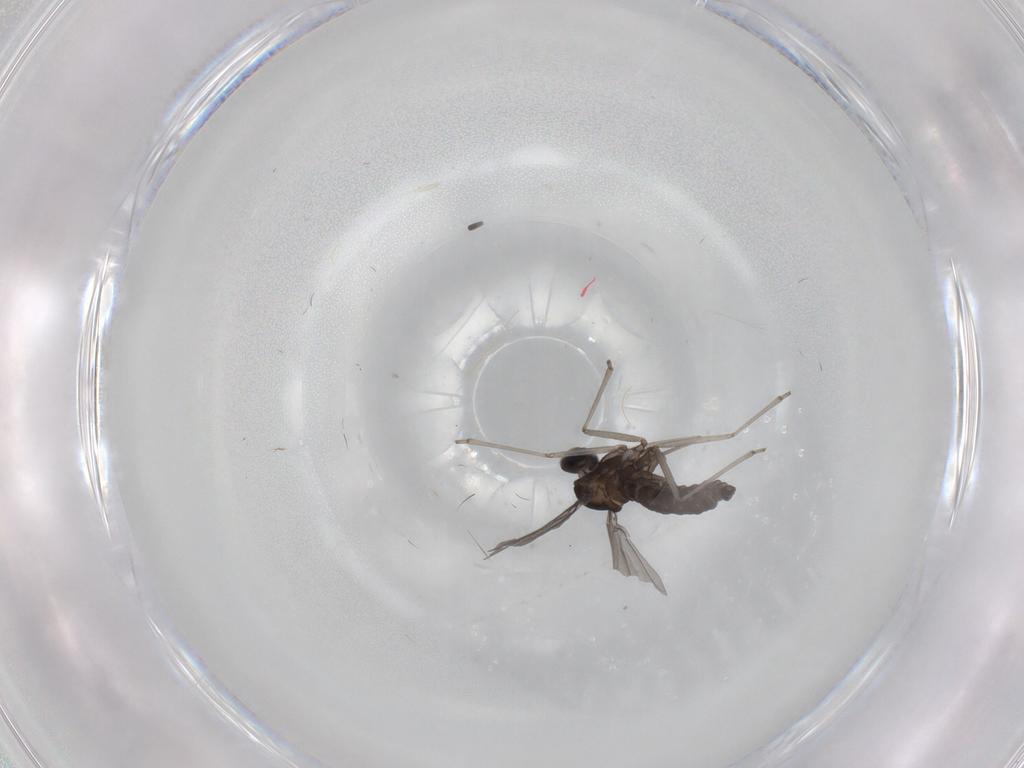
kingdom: Animalia
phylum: Arthropoda
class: Insecta
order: Diptera
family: Cecidomyiidae
